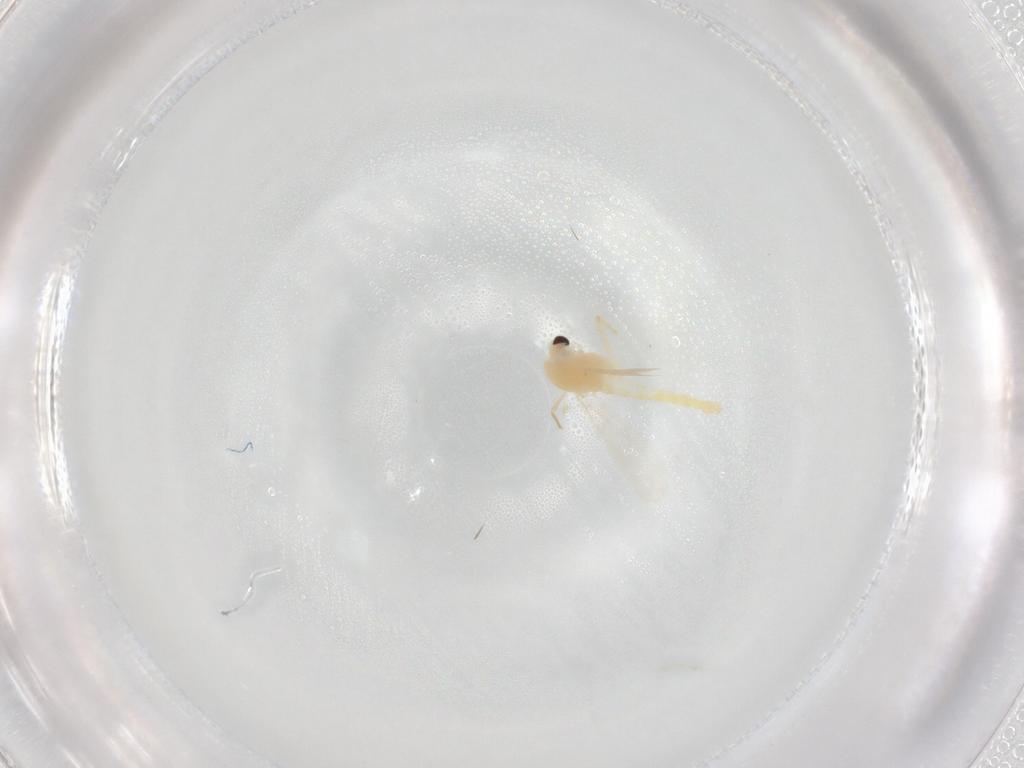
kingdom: Animalia
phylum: Arthropoda
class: Insecta
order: Diptera
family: Chironomidae
